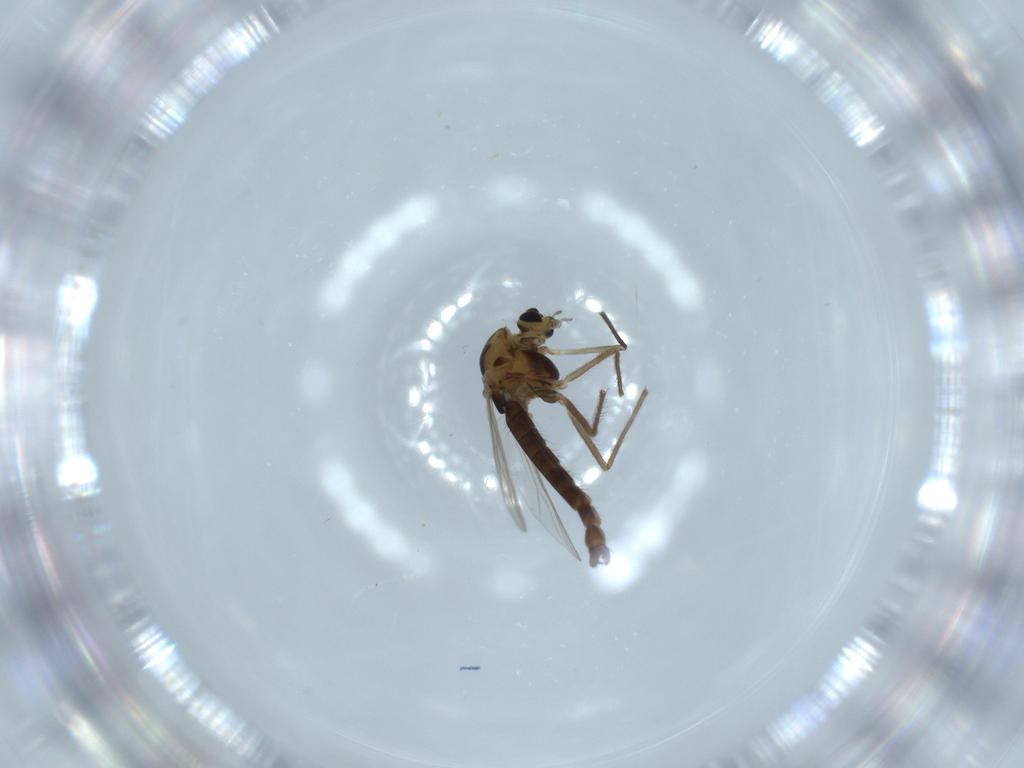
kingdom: Animalia
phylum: Arthropoda
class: Insecta
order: Diptera
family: Chironomidae
